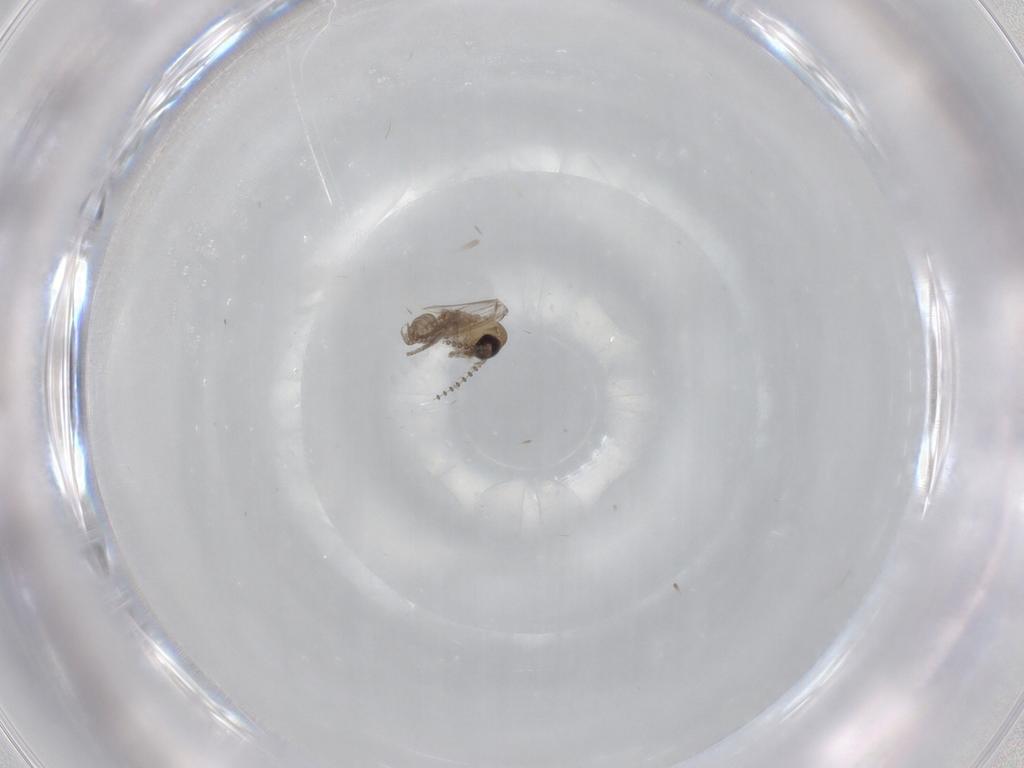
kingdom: Animalia
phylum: Arthropoda
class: Insecta
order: Diptera
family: Psychodidae
